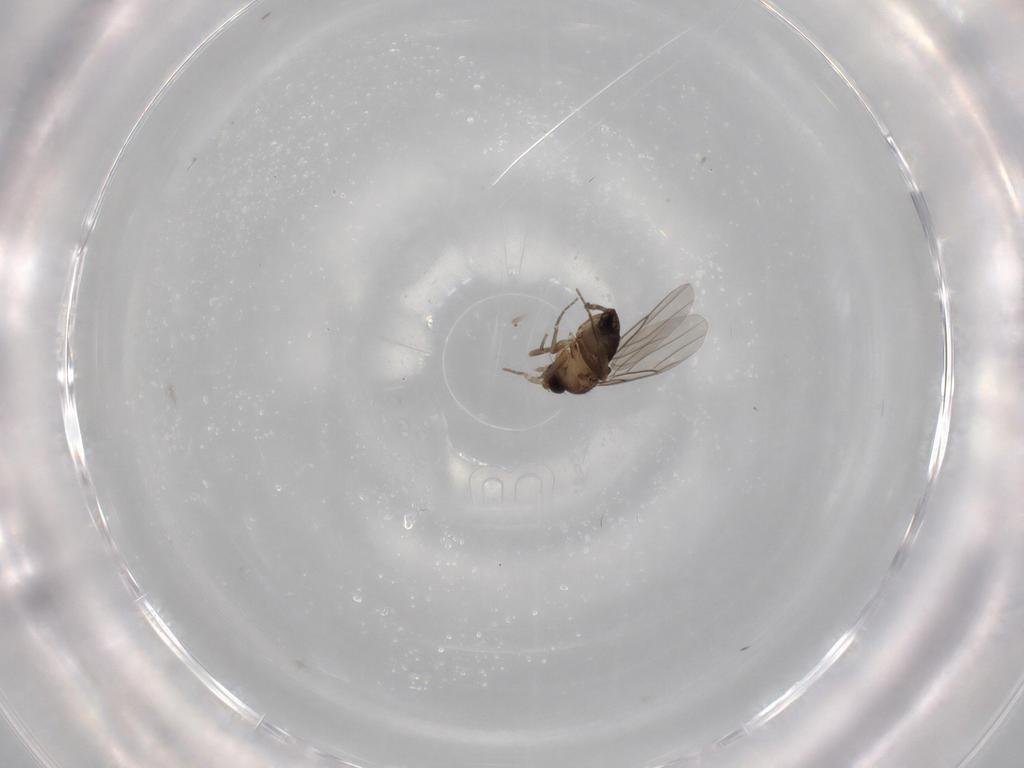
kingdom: Animalia
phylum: Arthropoda
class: Insecta
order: Diptera
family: Phoridae
